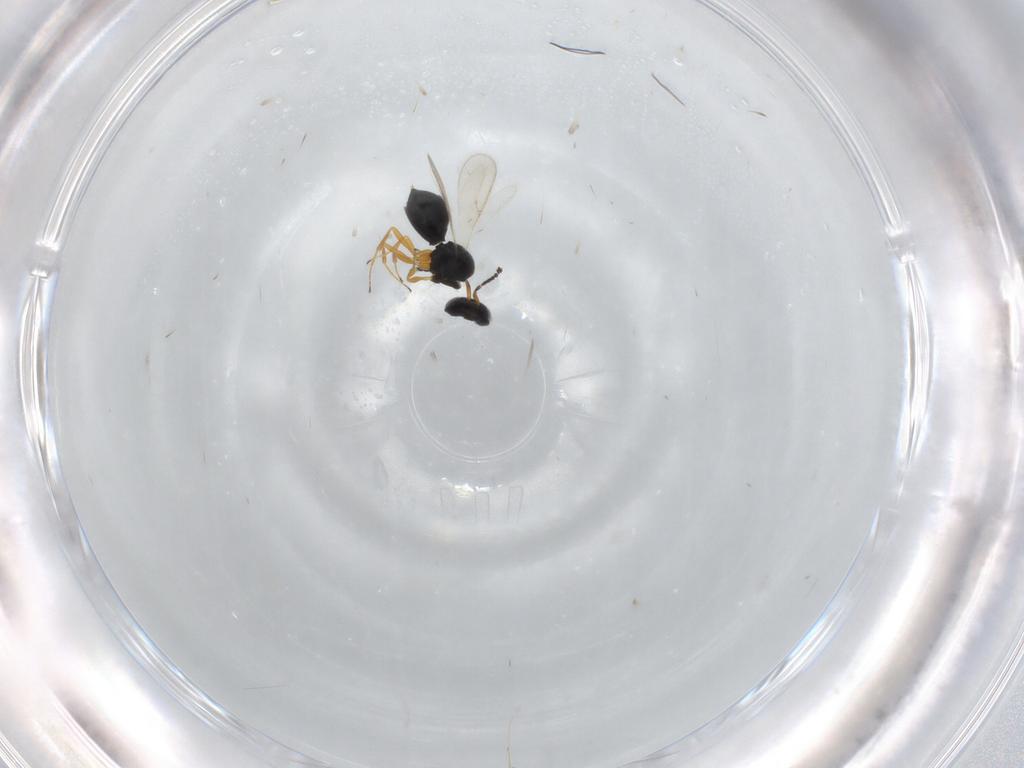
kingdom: Animalia
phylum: Arthropoda
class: Insecta
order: Hymenoptera
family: Scelionidae
